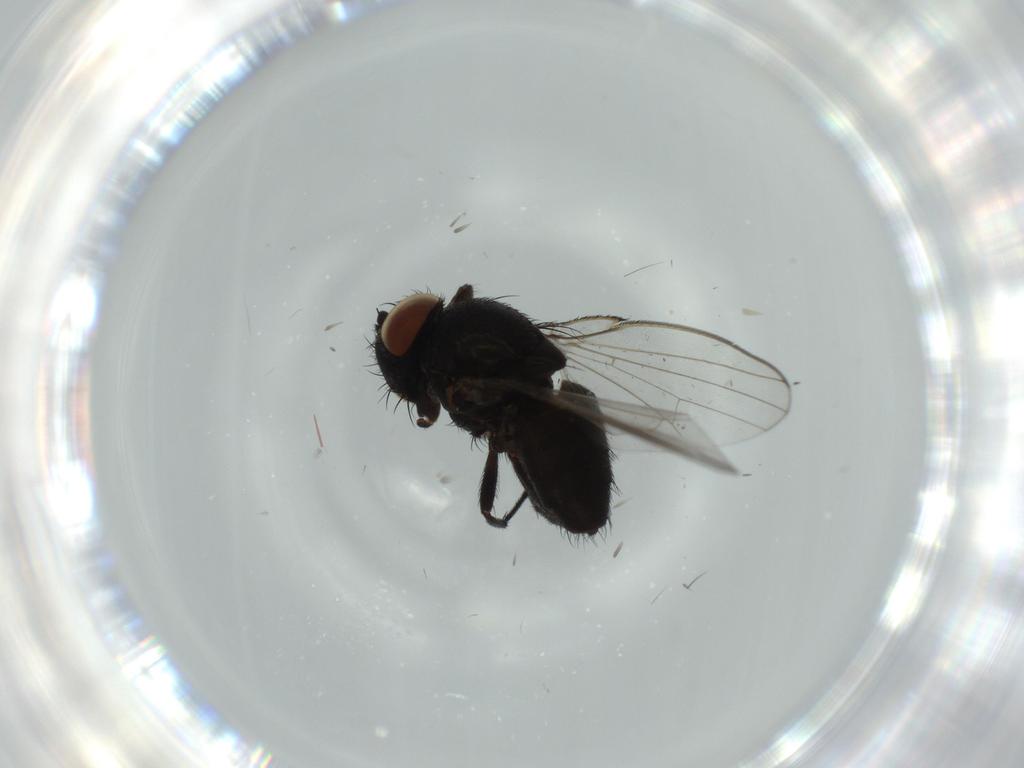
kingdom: Animalia
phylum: Arthropoda
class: Insecta
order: Diptera
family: Milichiidae
